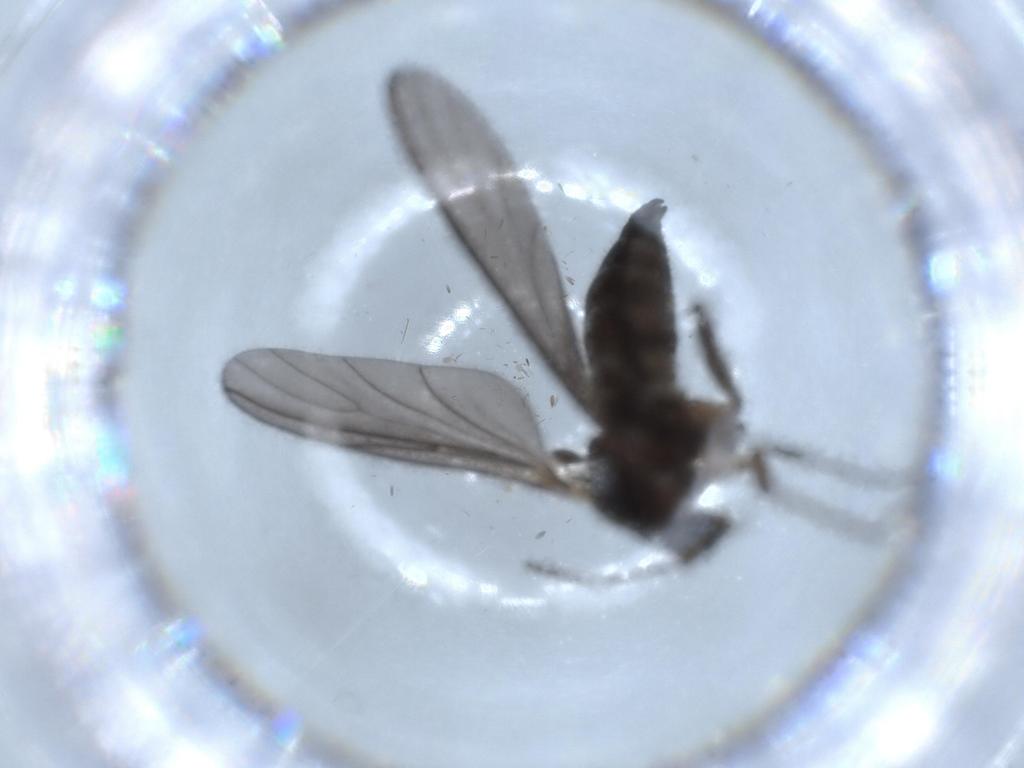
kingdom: Animalia
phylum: Arthropoda
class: Insecta
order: Diptera
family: Sciaridae
